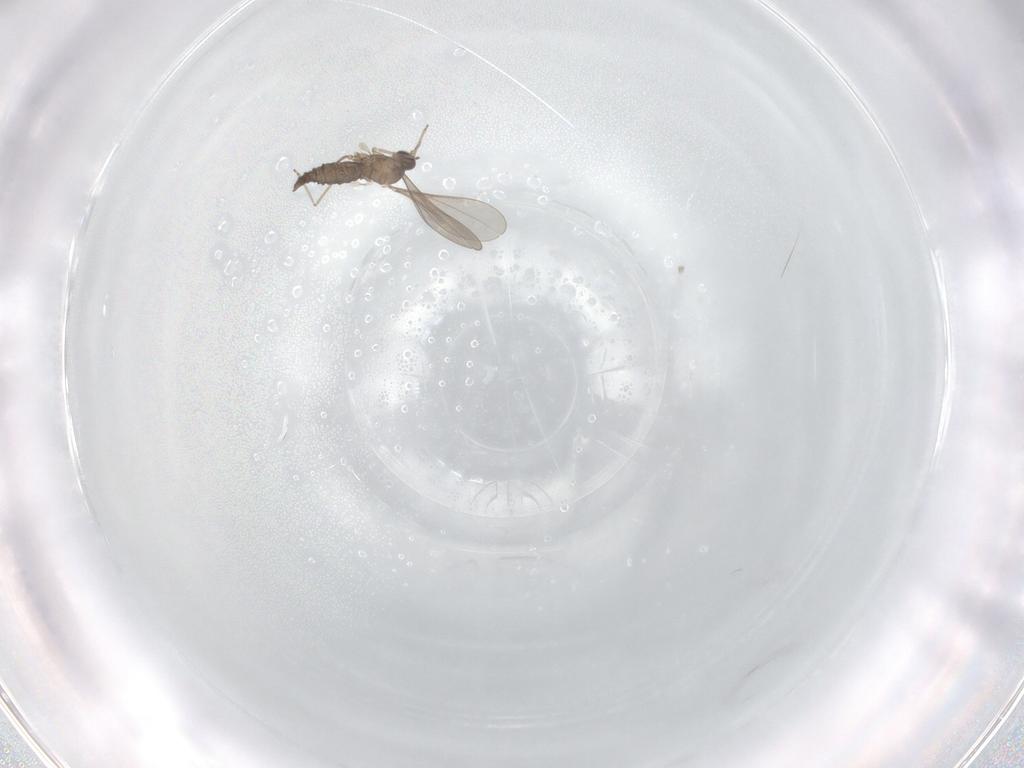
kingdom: Animalia
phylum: Arthropoda
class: Insecta
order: Diptera
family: Cecidomyiidae
